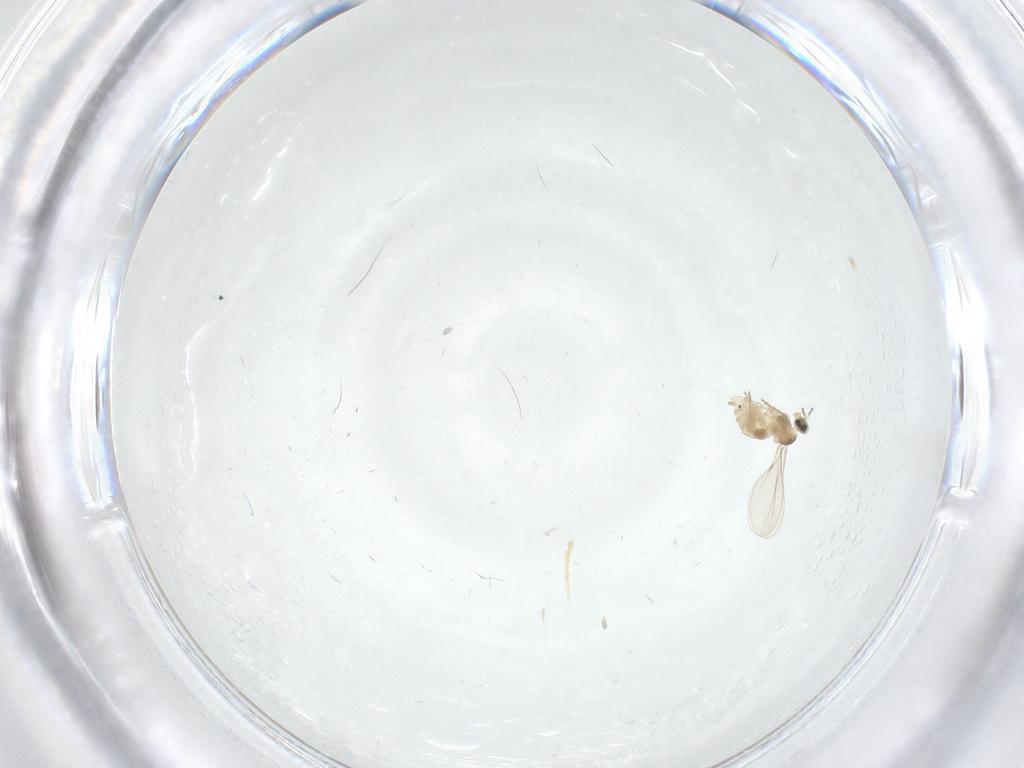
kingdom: Animalia
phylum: Arthropoda
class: Insecta
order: Diptera
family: Cecidomyiidae
